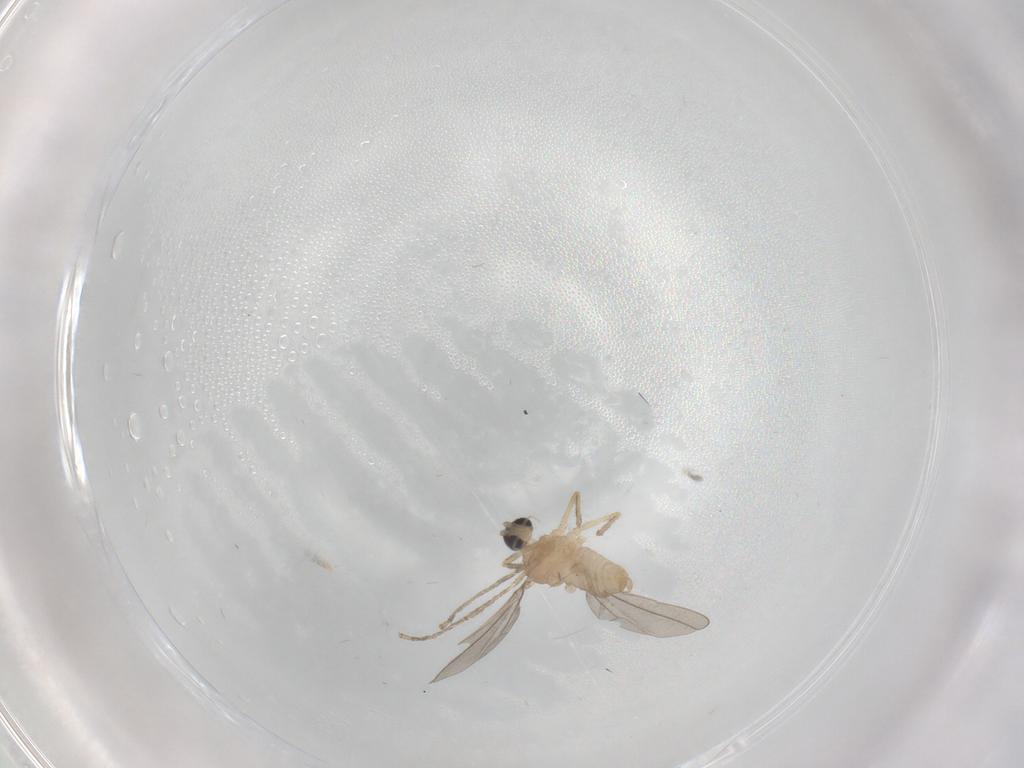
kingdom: Animalia
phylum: Arthropoda
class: Insecta
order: Diptera
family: Cecidomyiidae
